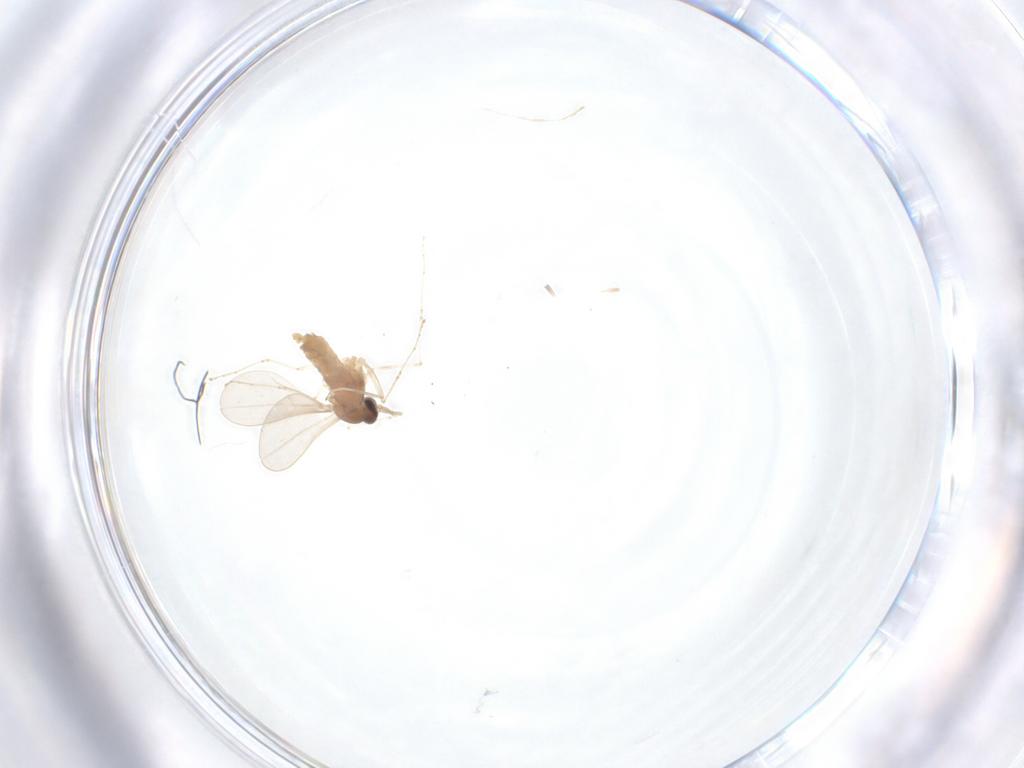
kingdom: Animalia
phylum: Arthropoda
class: Insecta
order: Diptera
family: Cecidomyiidae
